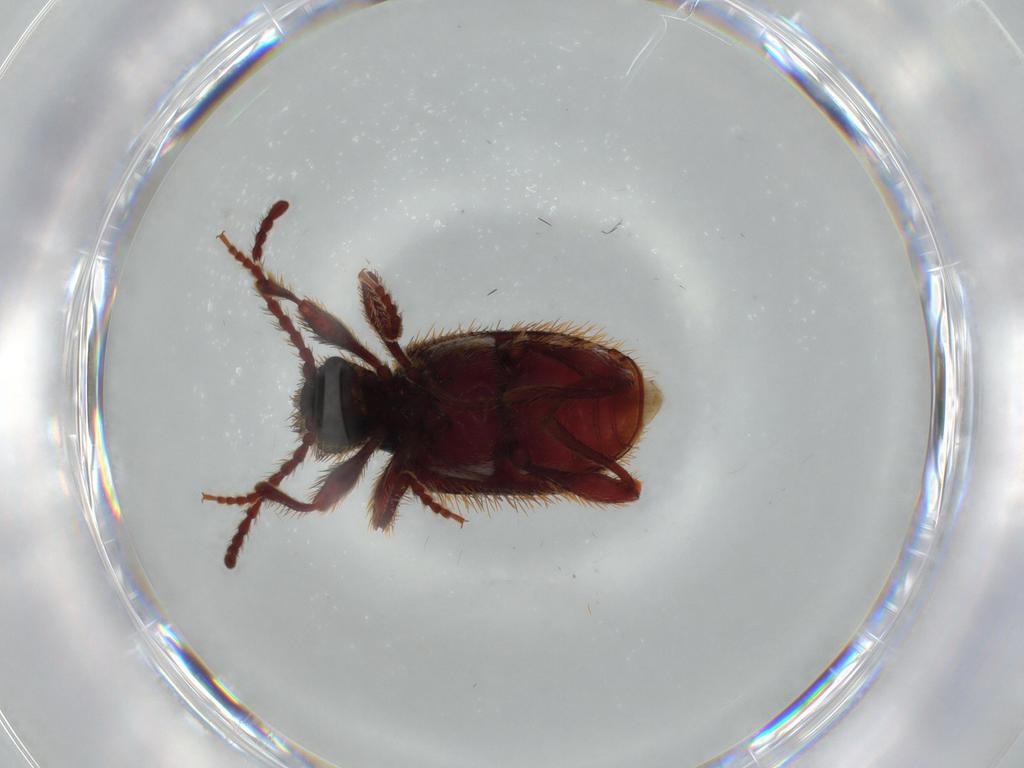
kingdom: Animalia
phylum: Arthropoda
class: Insecta
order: Coleoptera
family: Ptinidae
